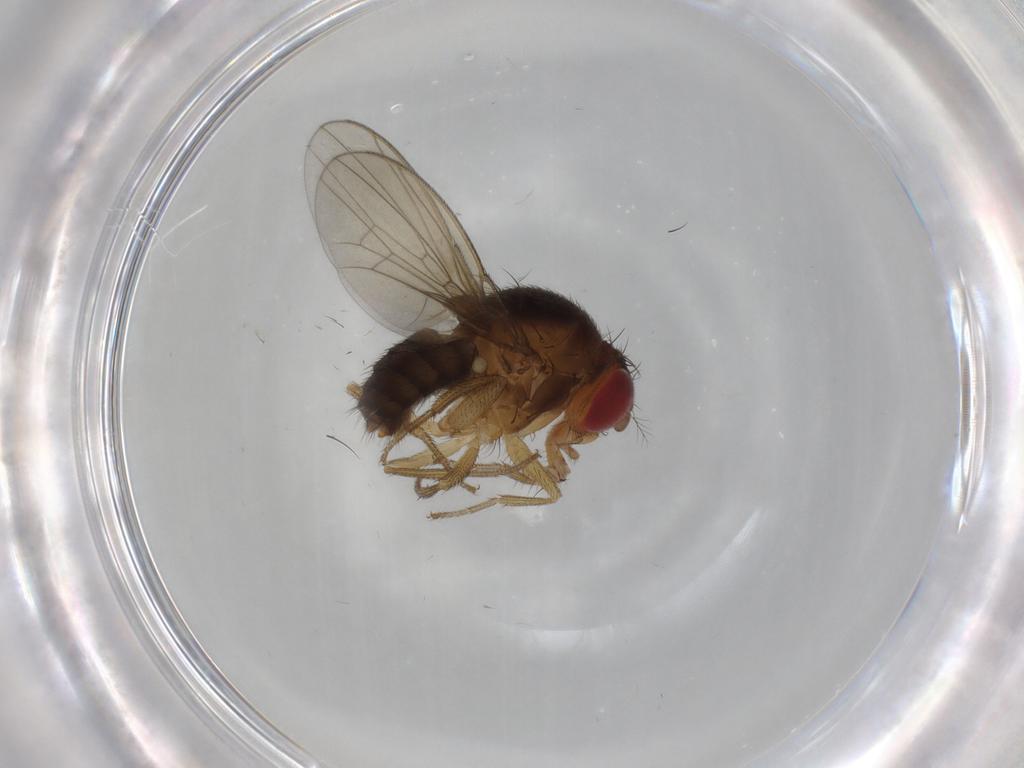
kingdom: Animalia
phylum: Arthropoda
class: Insecta
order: Diptera
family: Drosophilidae
